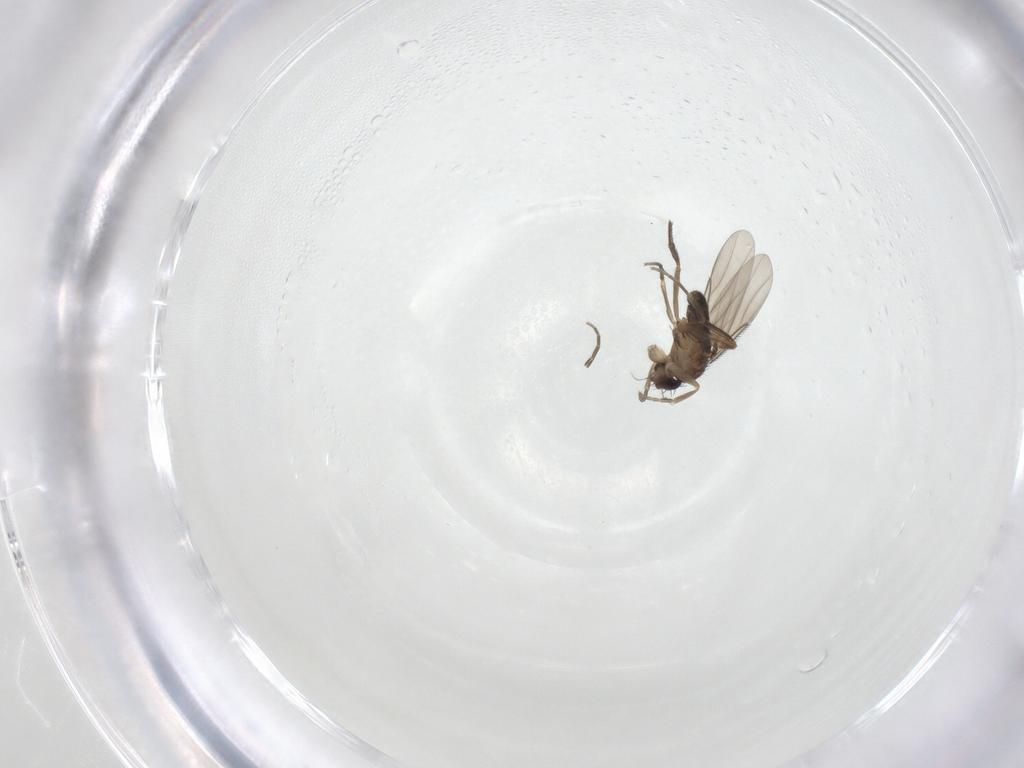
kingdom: Animalia
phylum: Arthropoda
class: Insecta
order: Diptera
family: Phoridae
